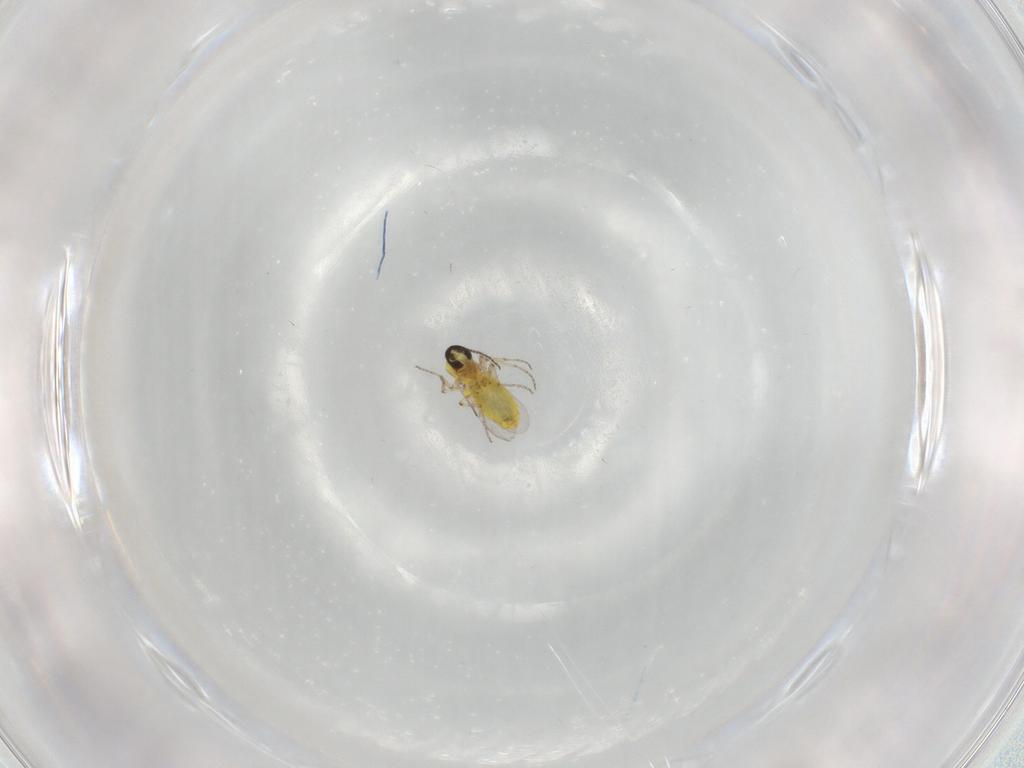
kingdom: Animalia
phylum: Arthropoda
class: Insecta
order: Diptera
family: Ceratopogonidae
